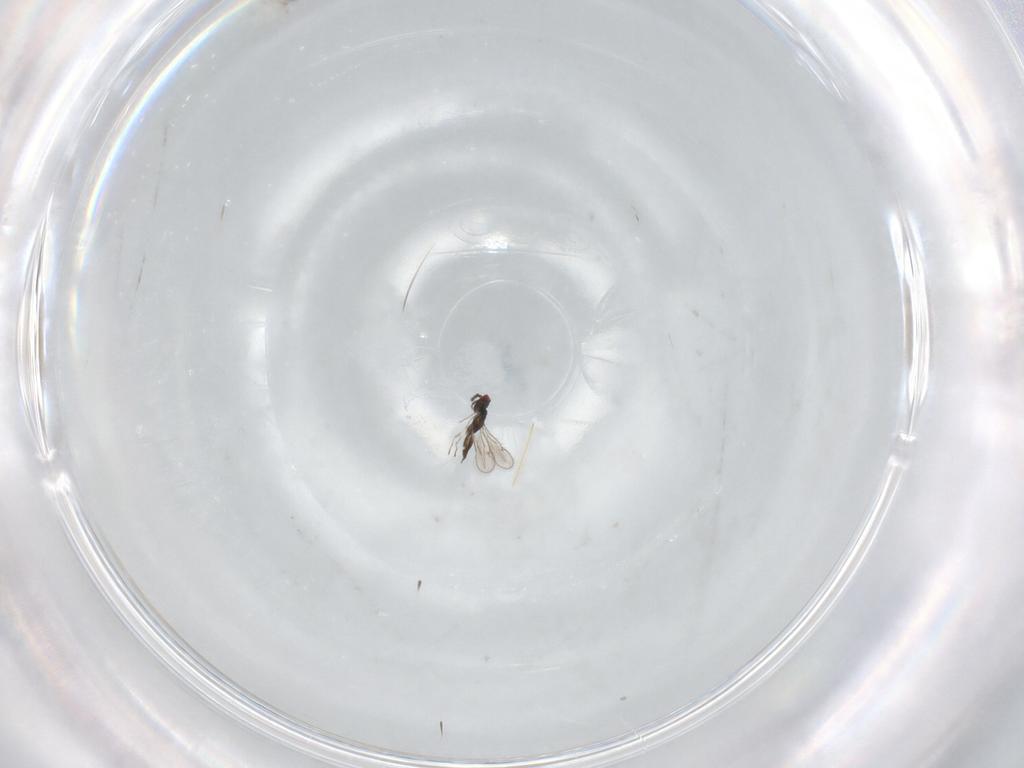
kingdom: Animalia
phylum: Arthropoda
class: Insecta
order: Hymenoptera
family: Eulophidae
